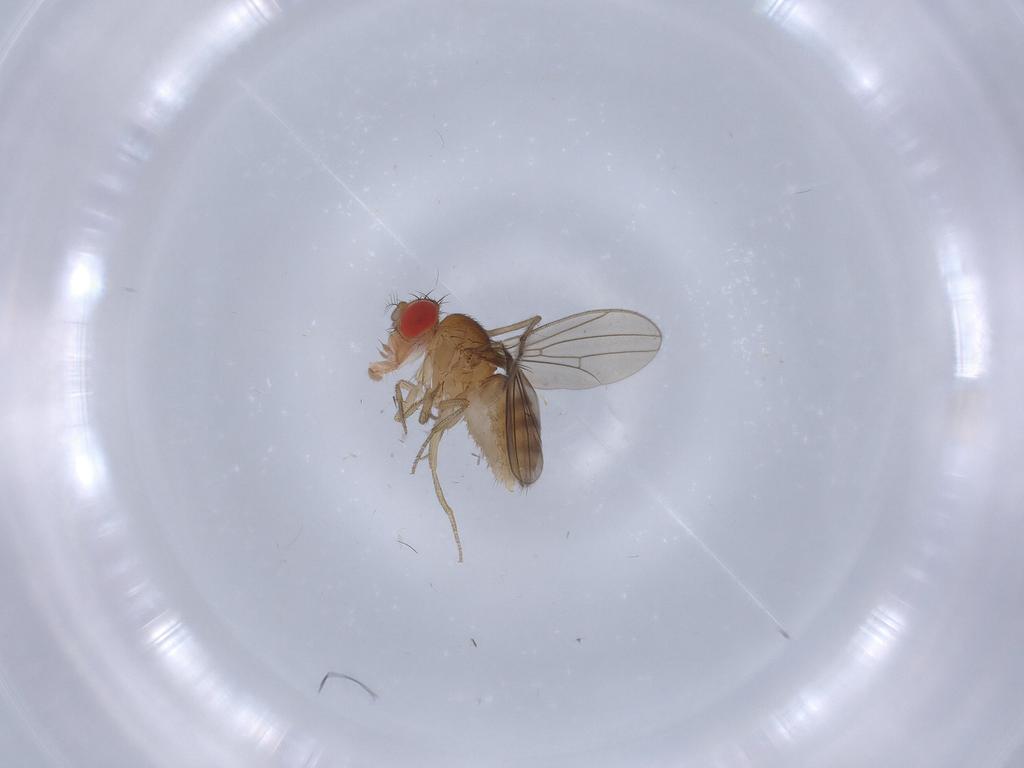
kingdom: Animalia
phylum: Arthropoda
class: Insecta
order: Diptera
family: Drosophilidae
